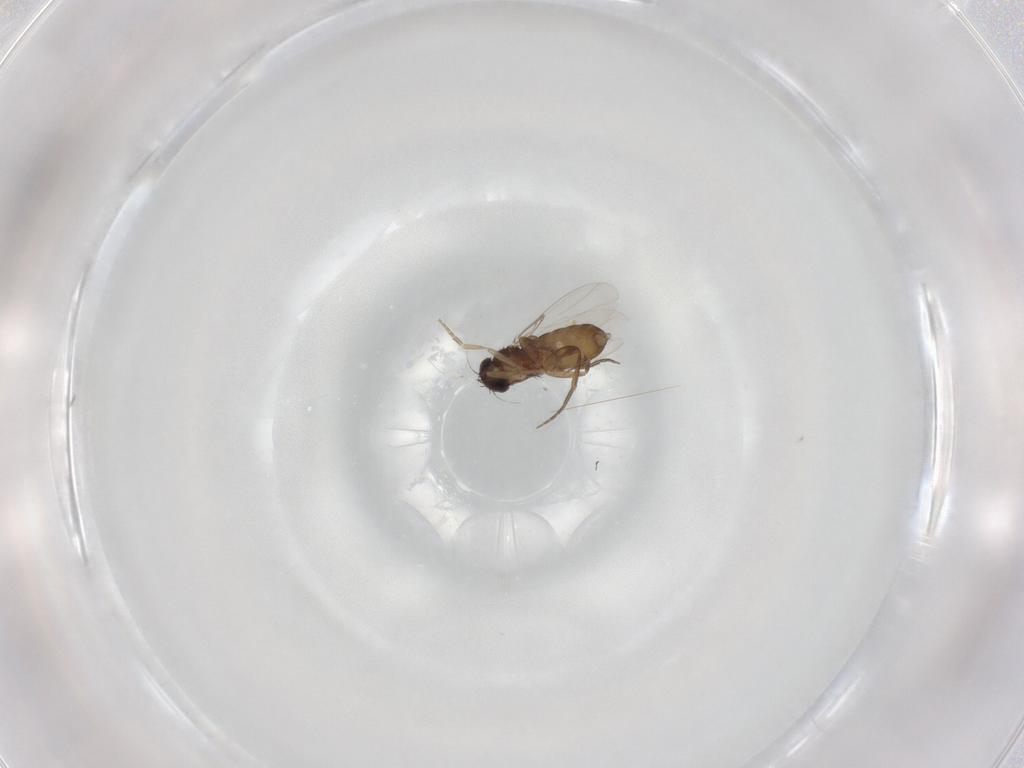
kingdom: Animalia
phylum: Arthropoda
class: Insecta
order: Diptera
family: Phoridae
